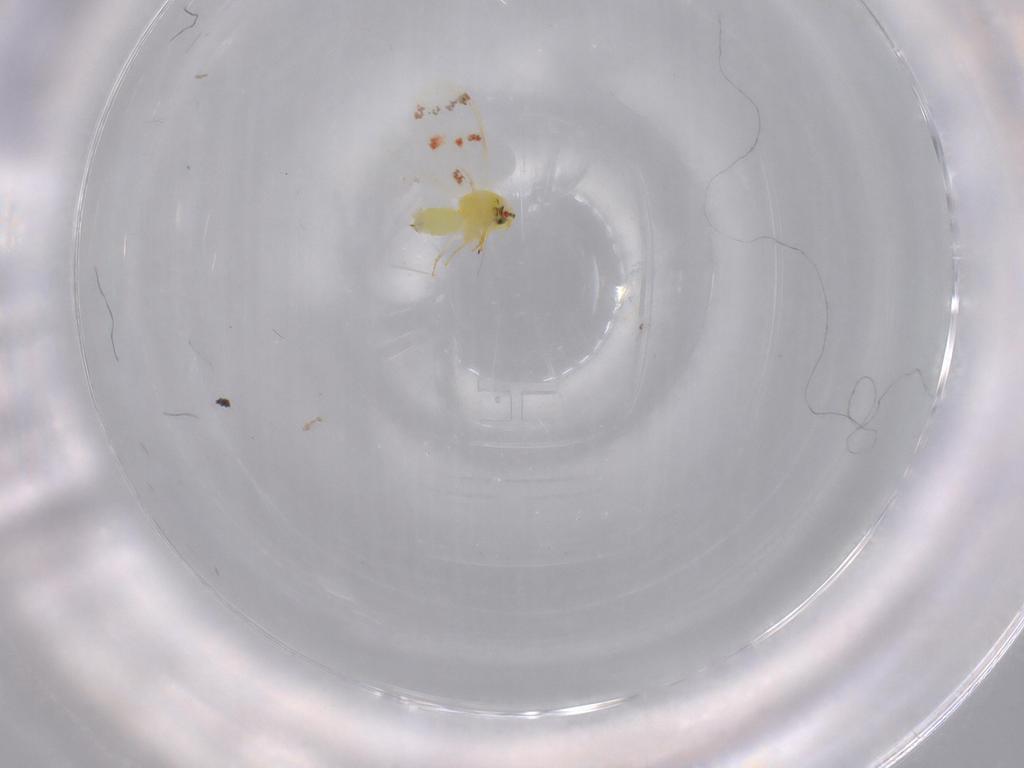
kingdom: Animalia
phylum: Arthropoda
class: Insecta
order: Hemiptera
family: Aleyrodidae
